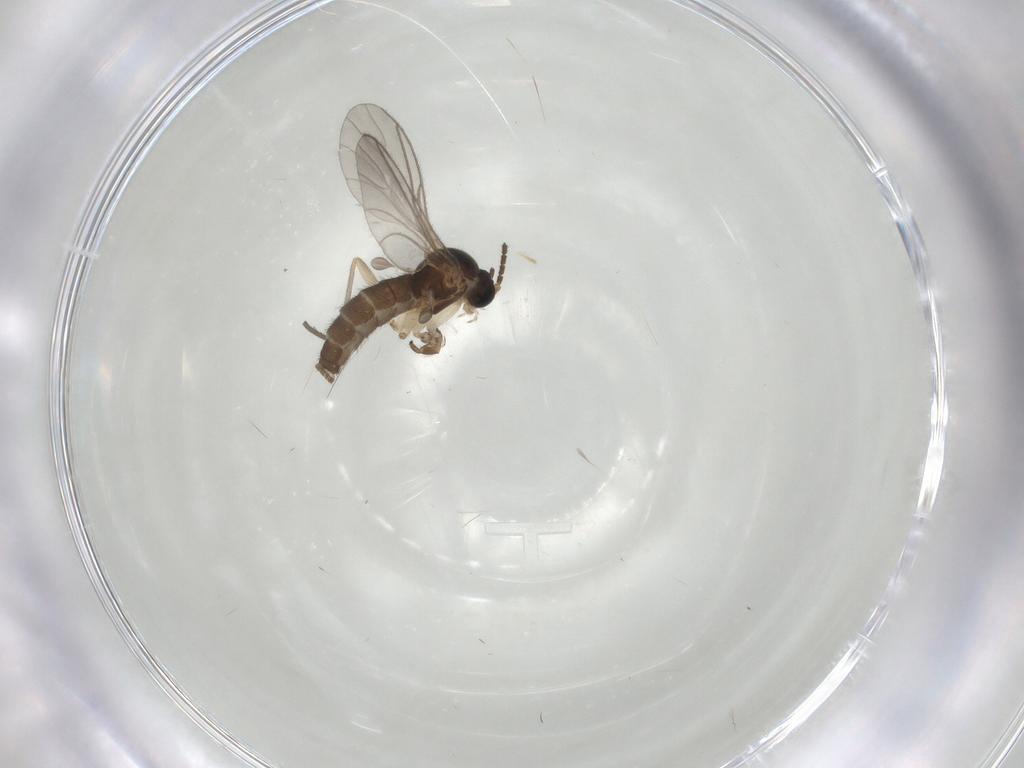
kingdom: Animalia
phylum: Arthropoda
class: Insecta
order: Diptera
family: Sciaridae
